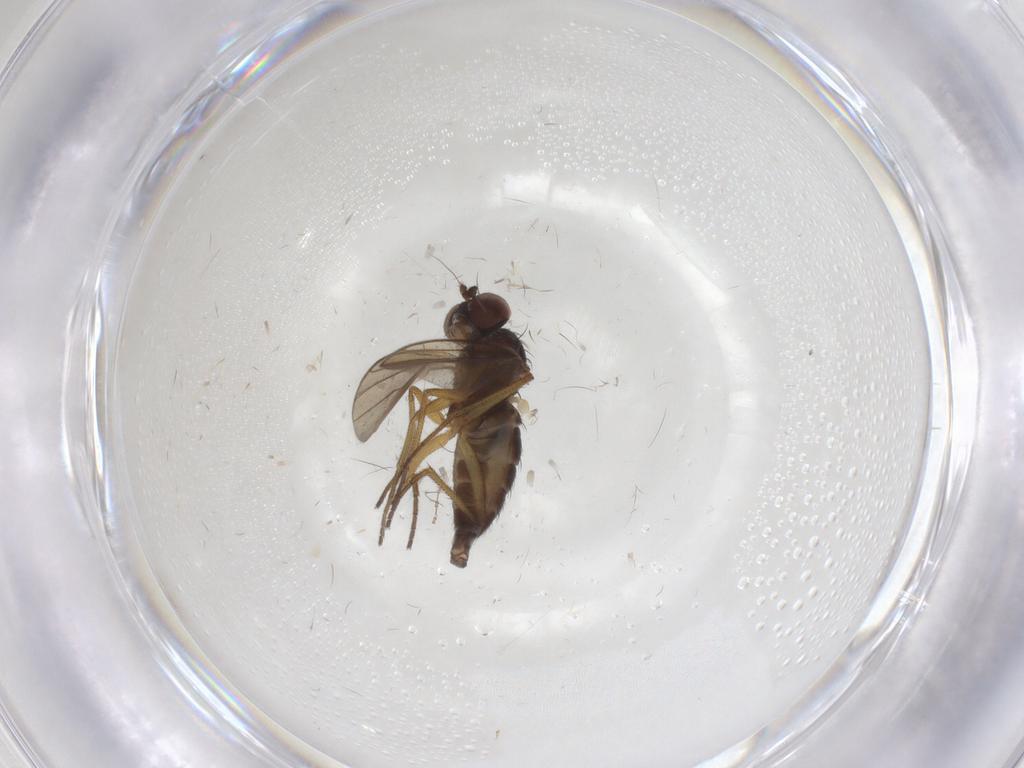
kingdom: Animalia
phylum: Arthropoda
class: Insecta
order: Diptera
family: Dolichopodidae
